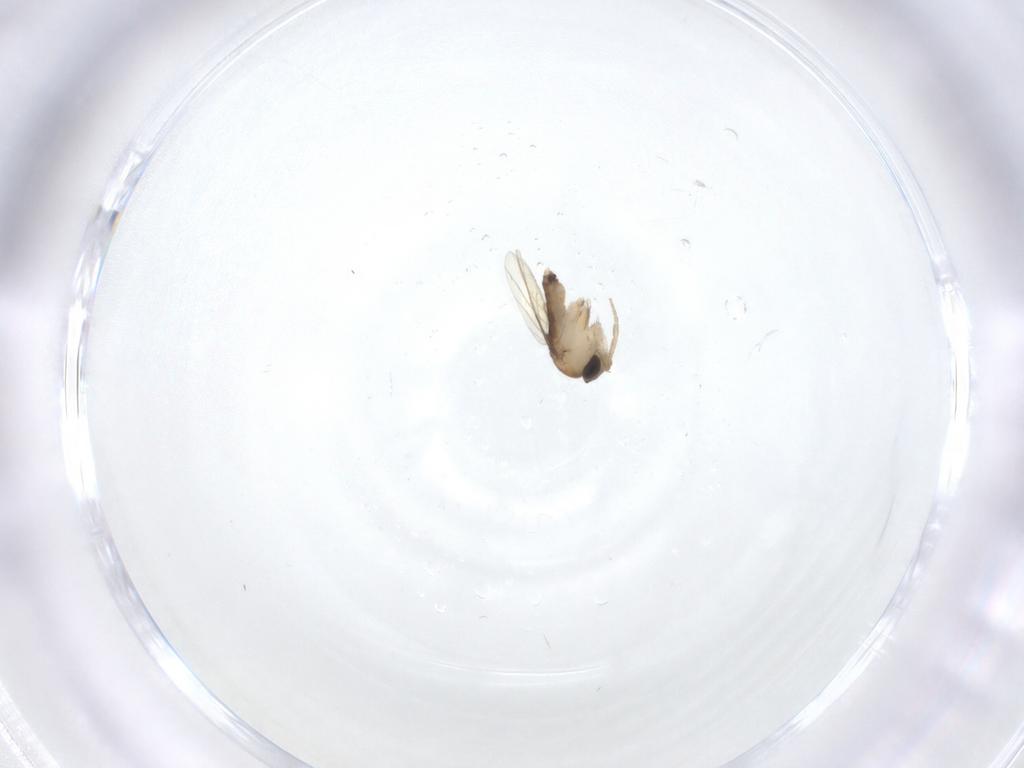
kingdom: Animalia
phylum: Arthropoda
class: Insecta
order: Diptera
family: Phoridae
